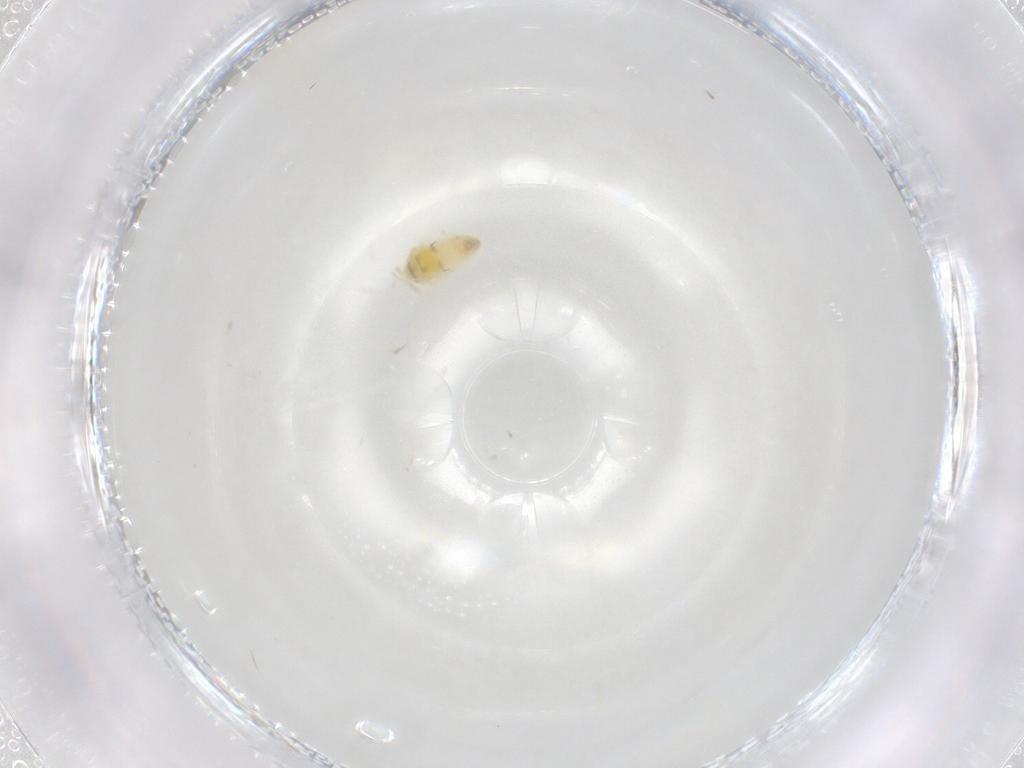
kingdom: Animalia
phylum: Arthropoda
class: Insecta
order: Hemiptera
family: Aleyrodidae
